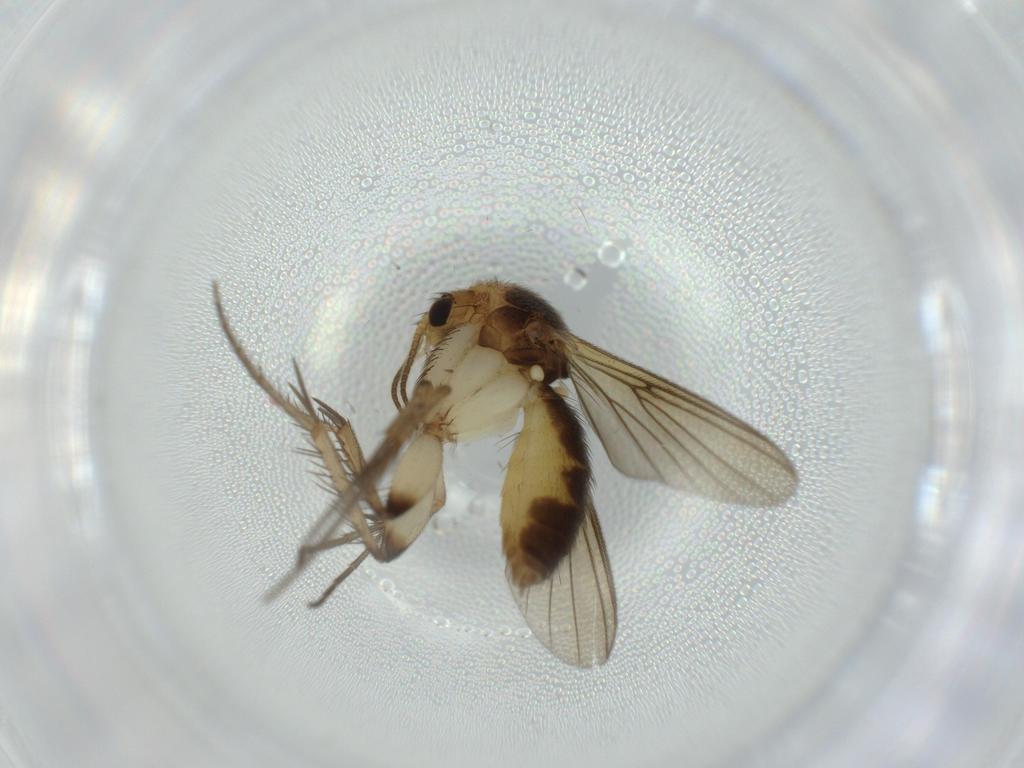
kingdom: Animalia
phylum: Arthropoda
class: Insecta
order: Diptera
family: Sciaridae
